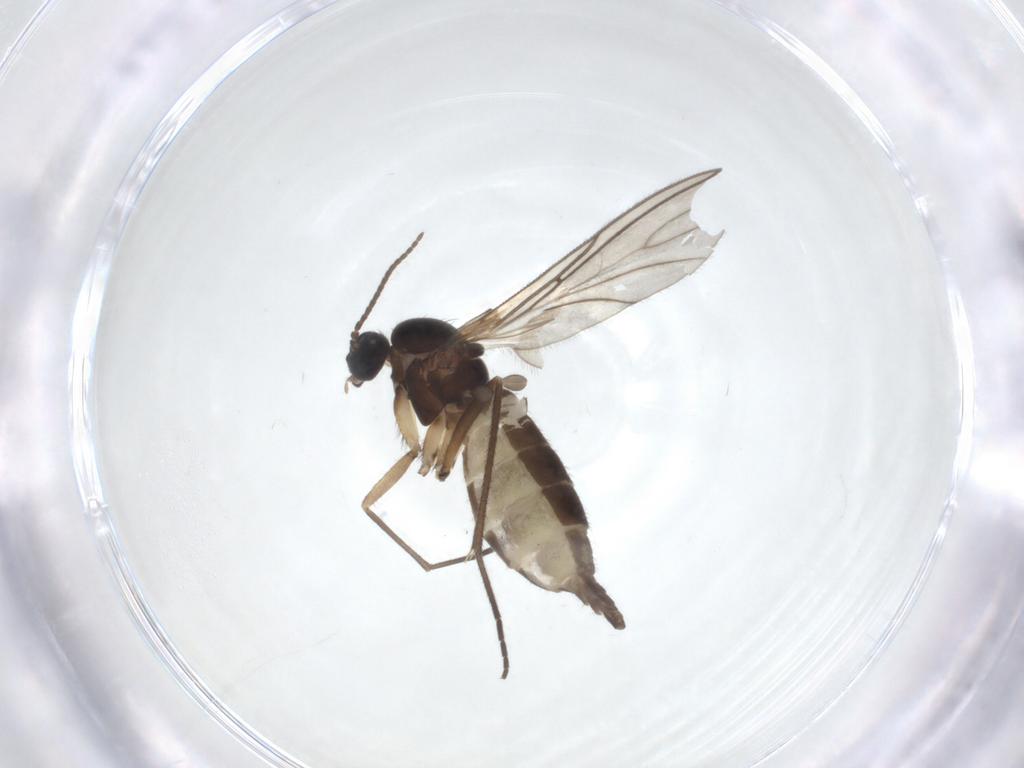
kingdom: Animalia
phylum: Arthropoda
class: Insecta
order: Diptera
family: Sciaridae
